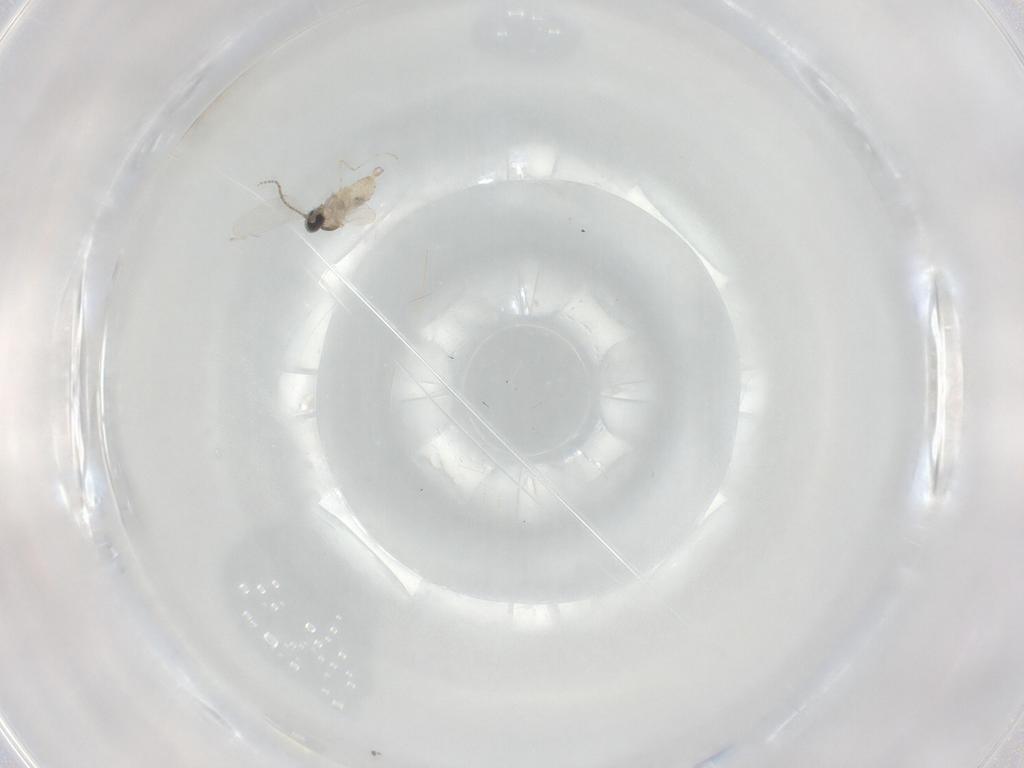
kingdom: Animalia
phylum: Arthropoda
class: Insecta
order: Diptera
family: Cecidomyiidae
